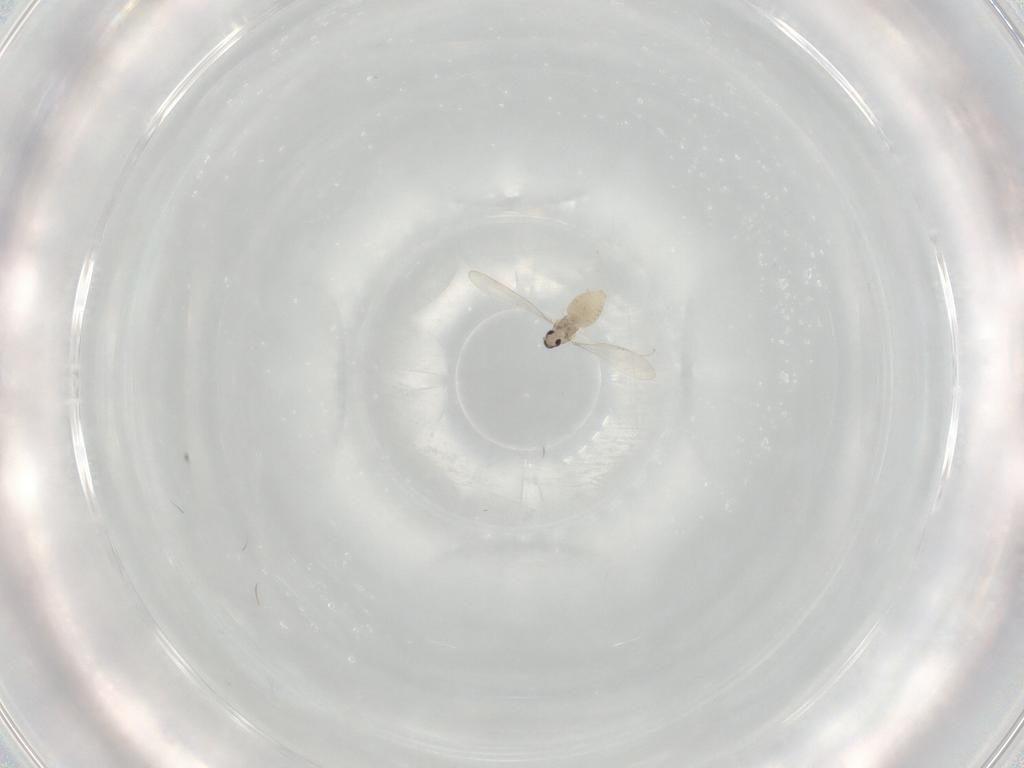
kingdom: Animalia
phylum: Arthropoda
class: Insecta
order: Diptera
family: Cecidomyiidae
